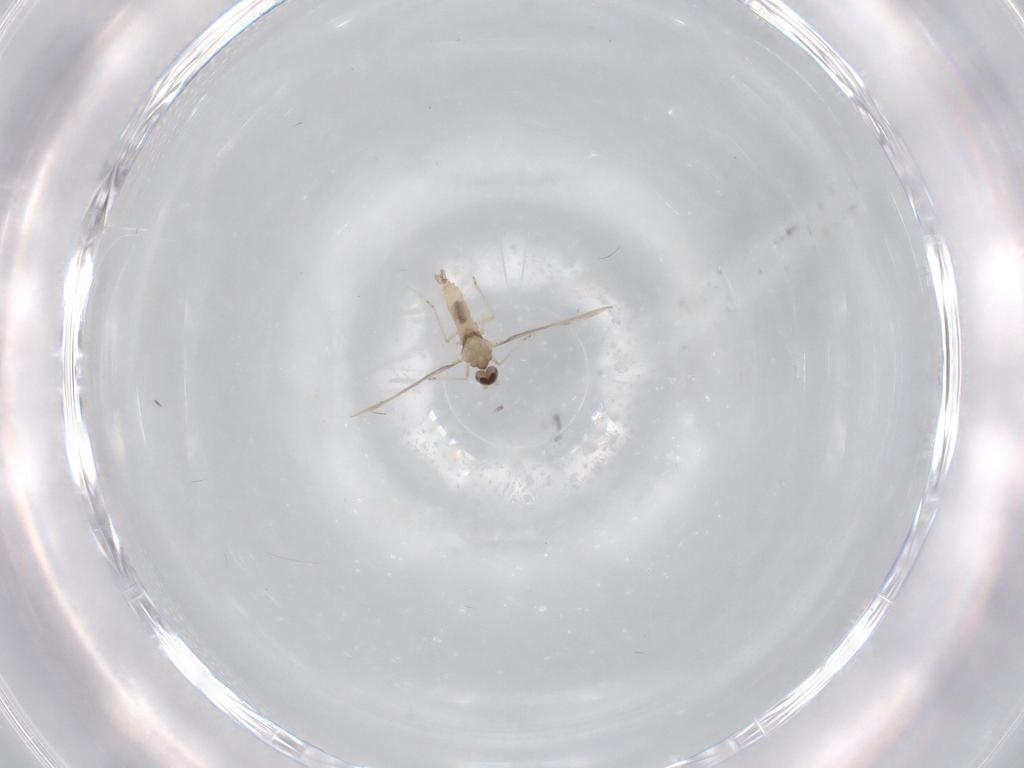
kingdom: Animalia
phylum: Arthropoda
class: Insecta
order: Diptera
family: Cecidomyiidae
